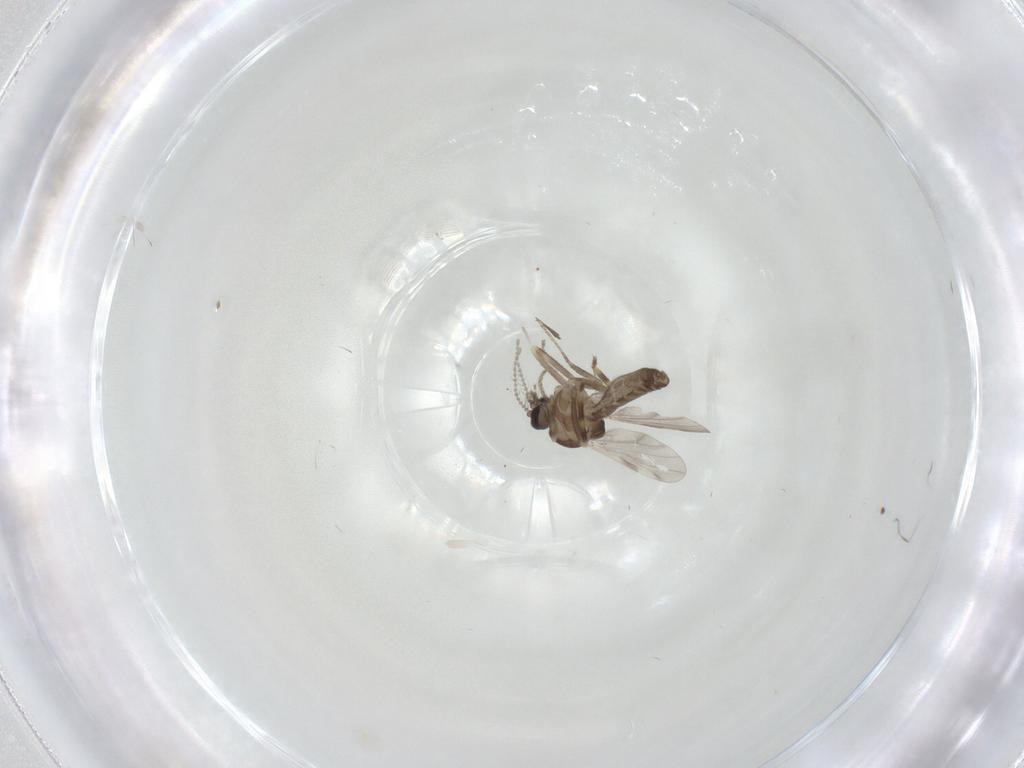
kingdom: Animalia
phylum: Arthropoda
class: Insecta
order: Diptera
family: Ceratopogonidae
